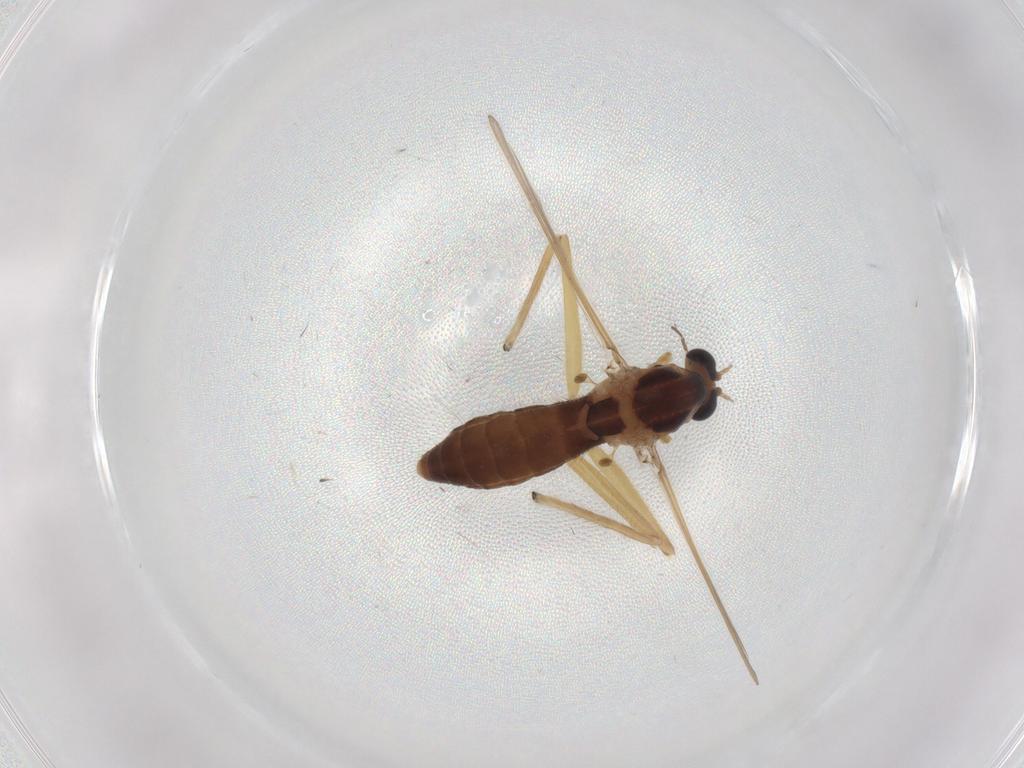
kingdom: Animalia
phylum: Arthropoda
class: Insecta
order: Diptera
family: Chironomidae
